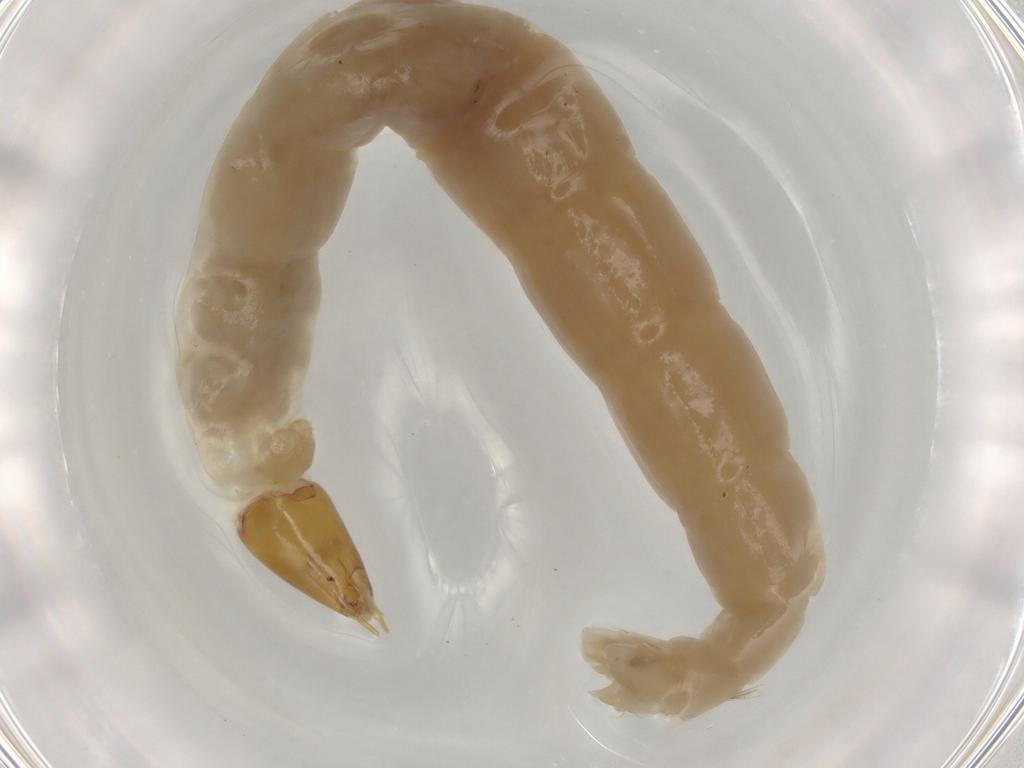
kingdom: Animalia
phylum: Arthropoda
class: Insecta
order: Diptera
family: Chironomidae
